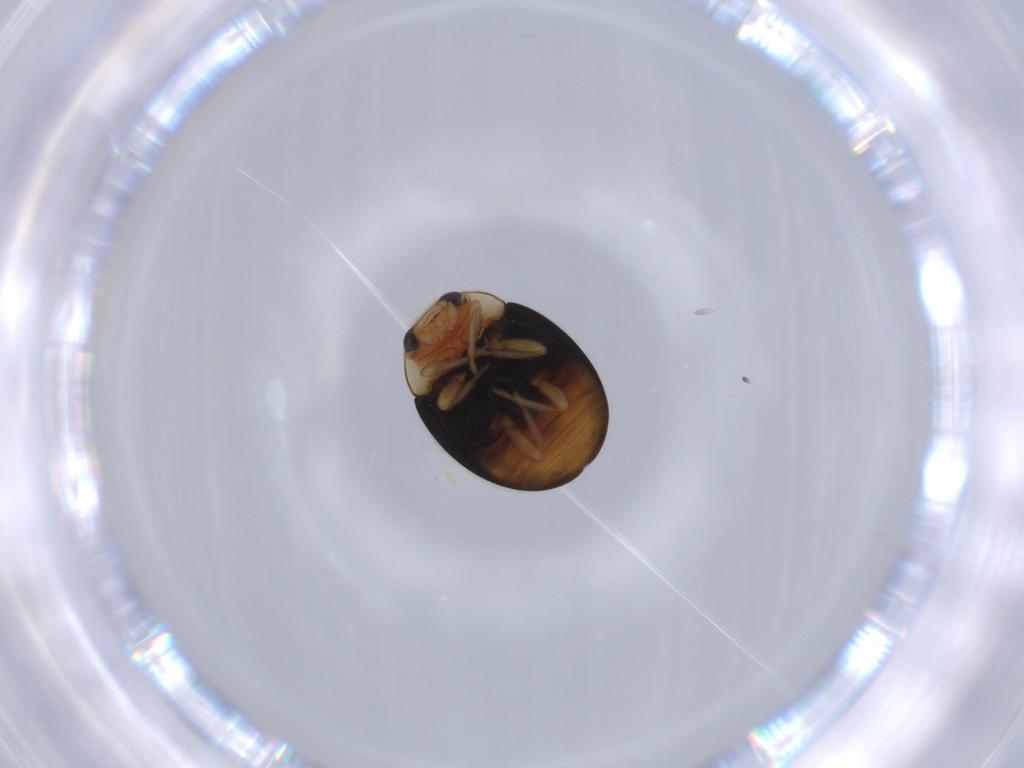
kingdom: Animalia
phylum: Arthropoda
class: Insecta
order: Coleoptera
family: Coccinellidae
